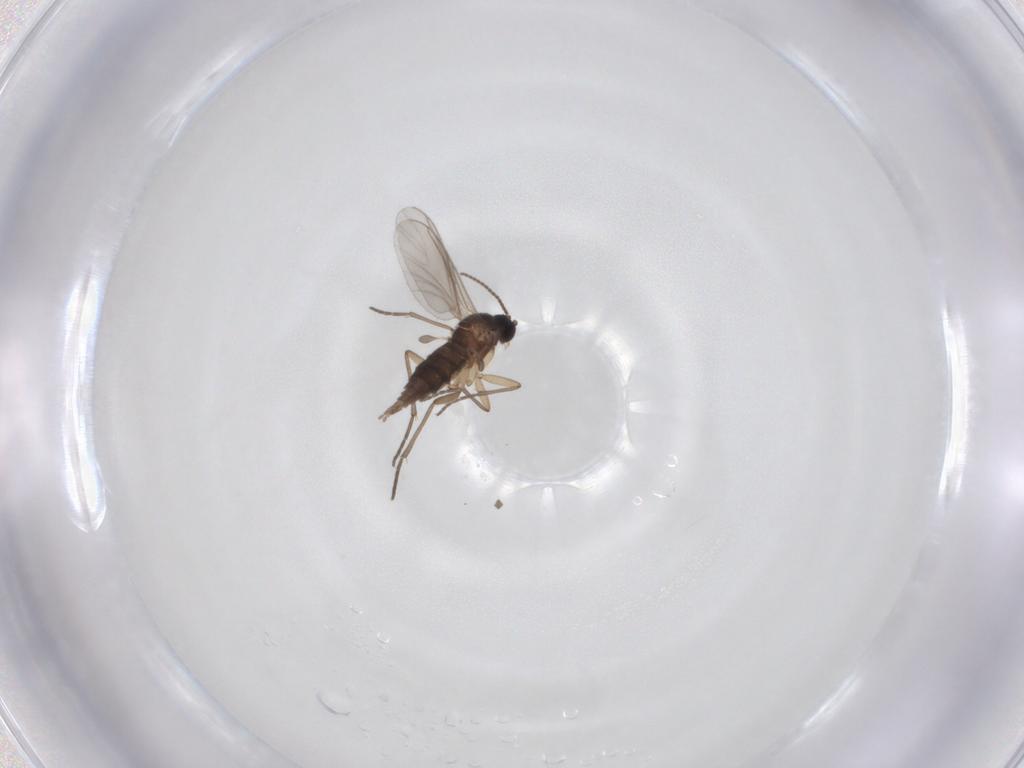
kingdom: Animalia
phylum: Arthropoda
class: Insecta
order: Diptera
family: Sciaridae
